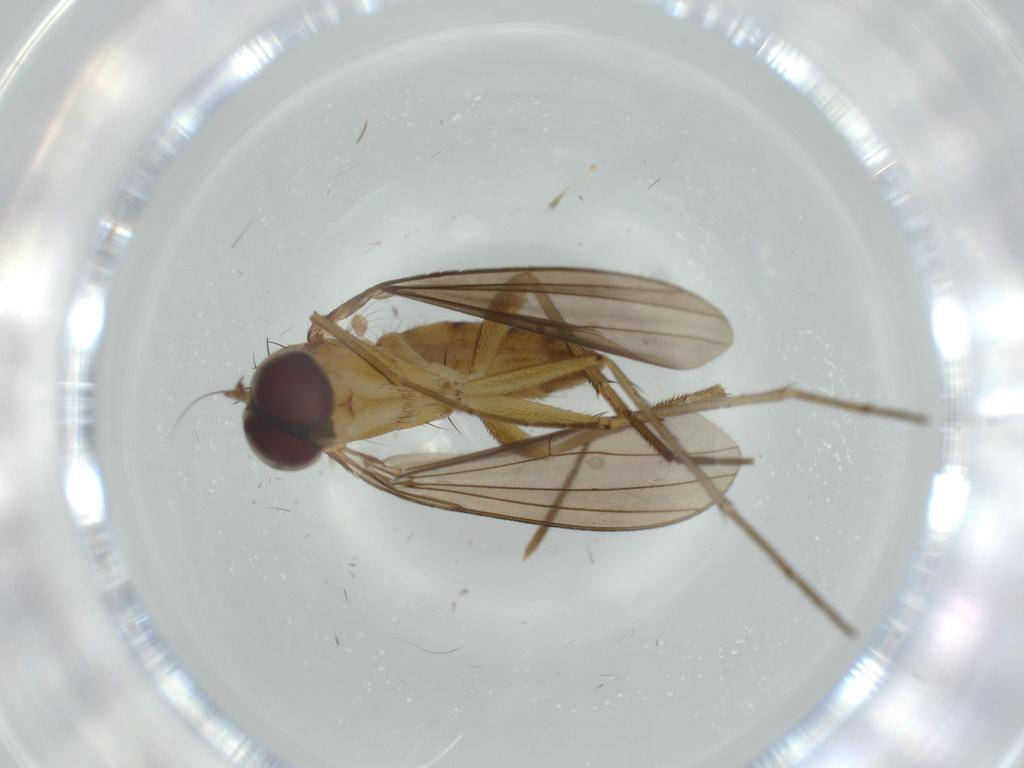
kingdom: Animalia
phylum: Arthropoda
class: Insecta
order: Diptera
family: Dolichopodidae
